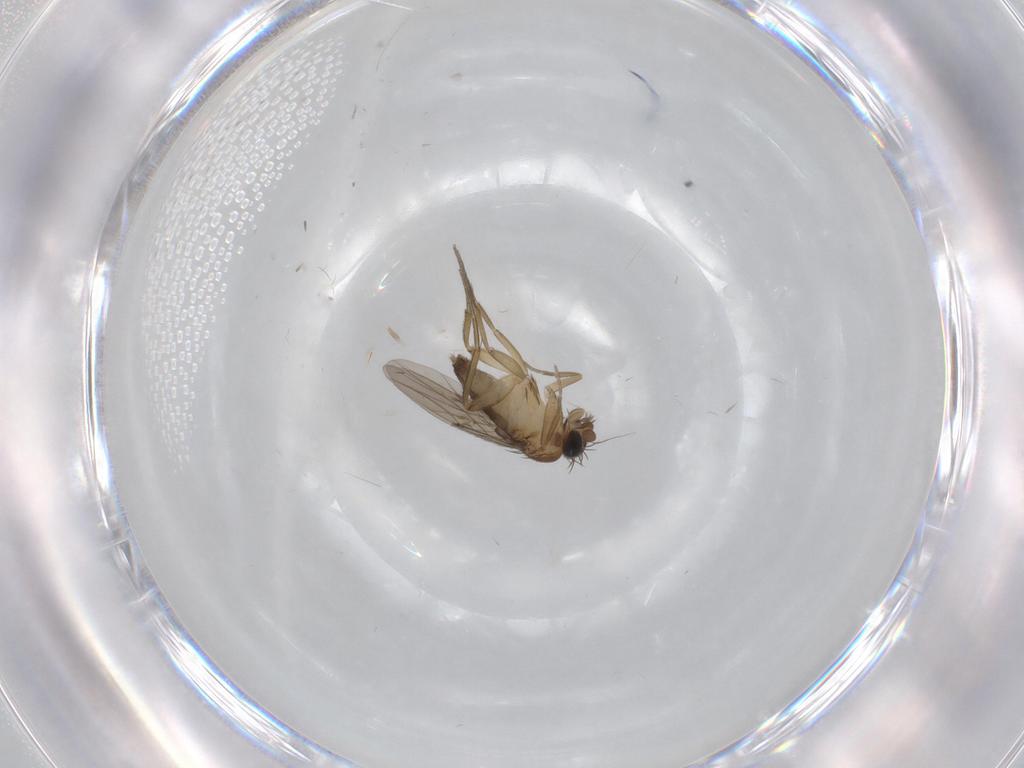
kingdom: Animalia
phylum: Arthropoda
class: Insecta
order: Diptera
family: Phoridae
